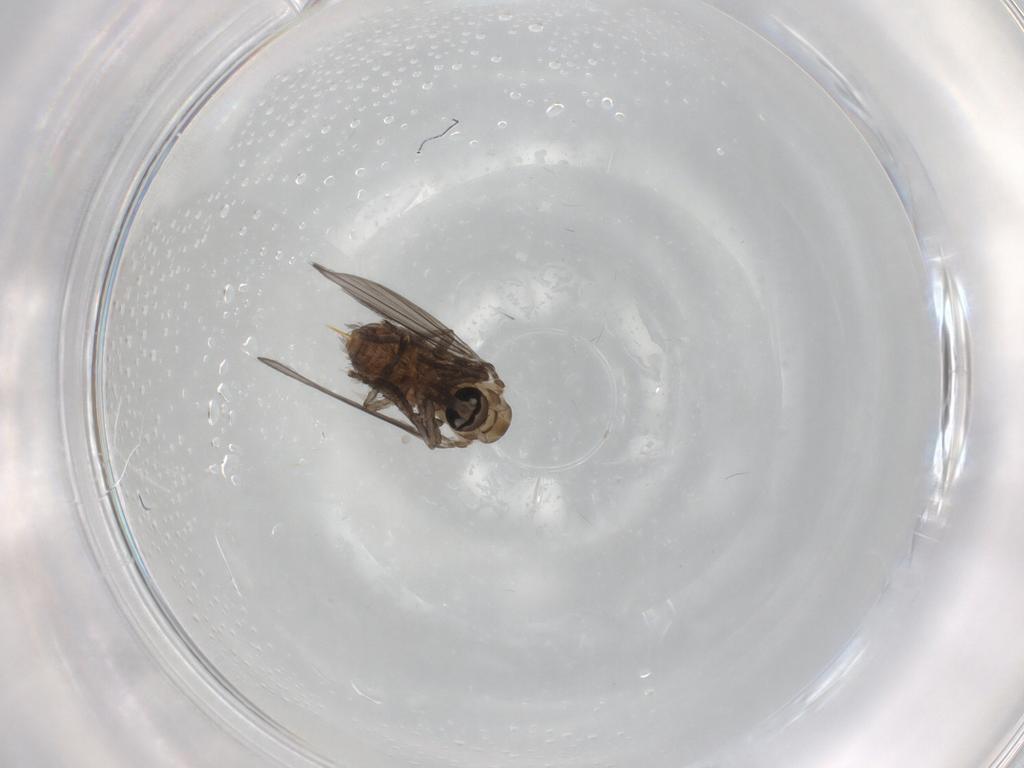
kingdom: Animalia
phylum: Arthropoda
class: Insecta
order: Diptera
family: Psychodidae
